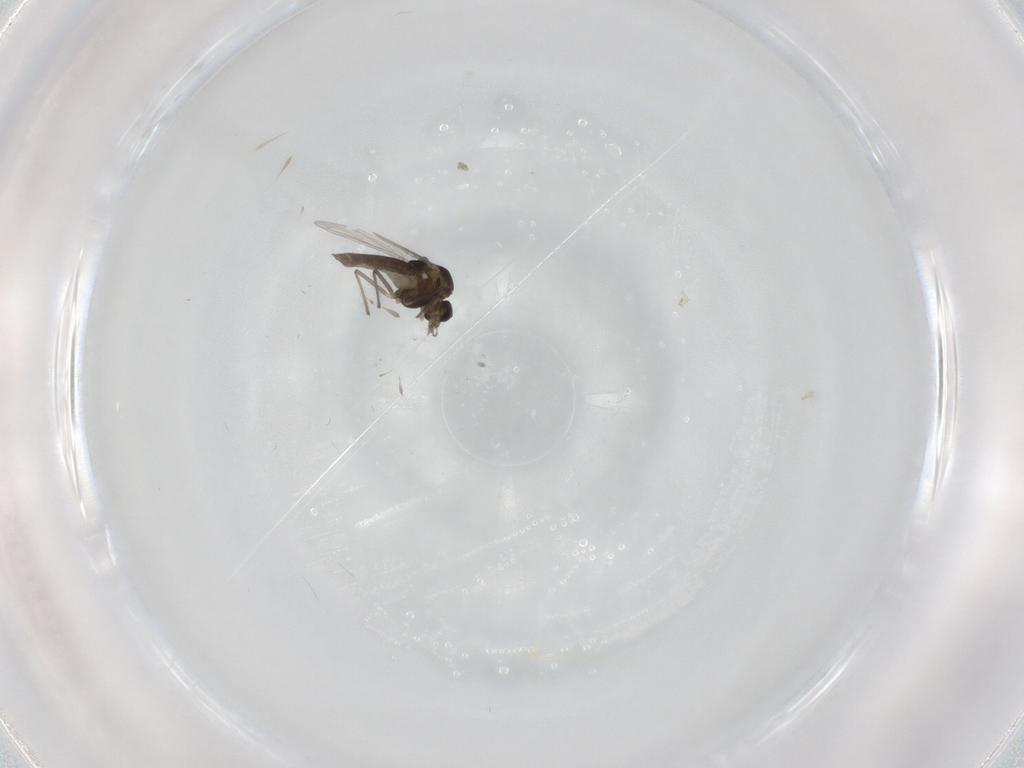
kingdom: Animalia
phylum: Arthropoda
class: Insecta
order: Diptera
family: Chironomidae
